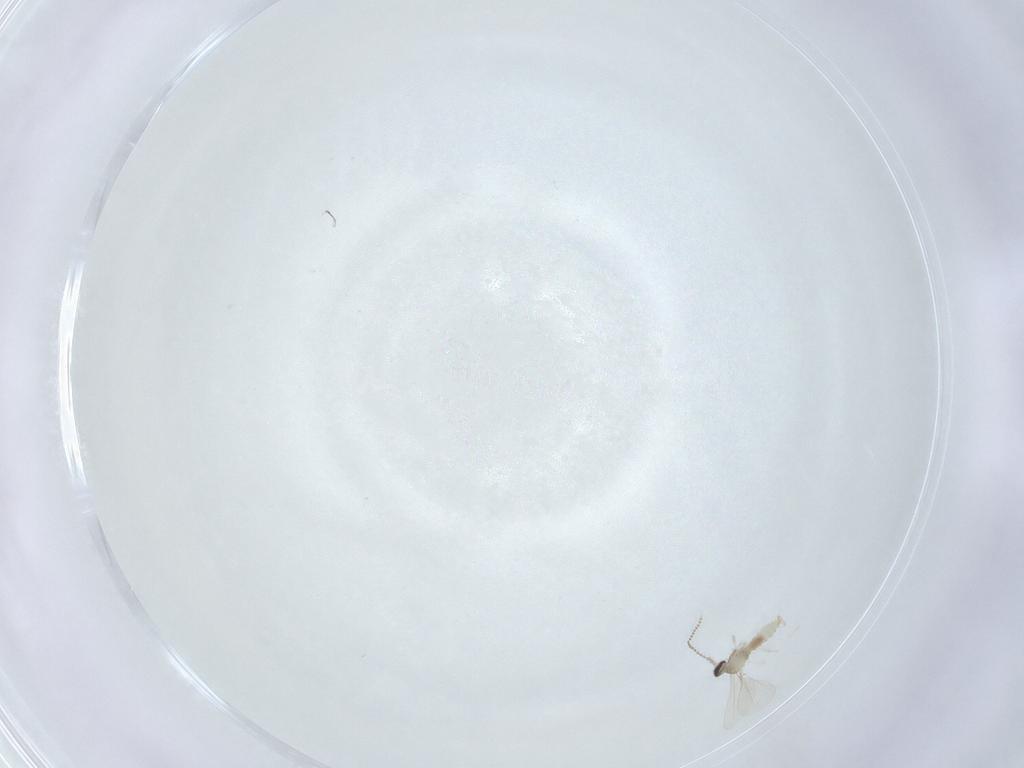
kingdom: Animalia
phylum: Arthropoda
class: Insecta
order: Diptera
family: Cecidomyiidae
